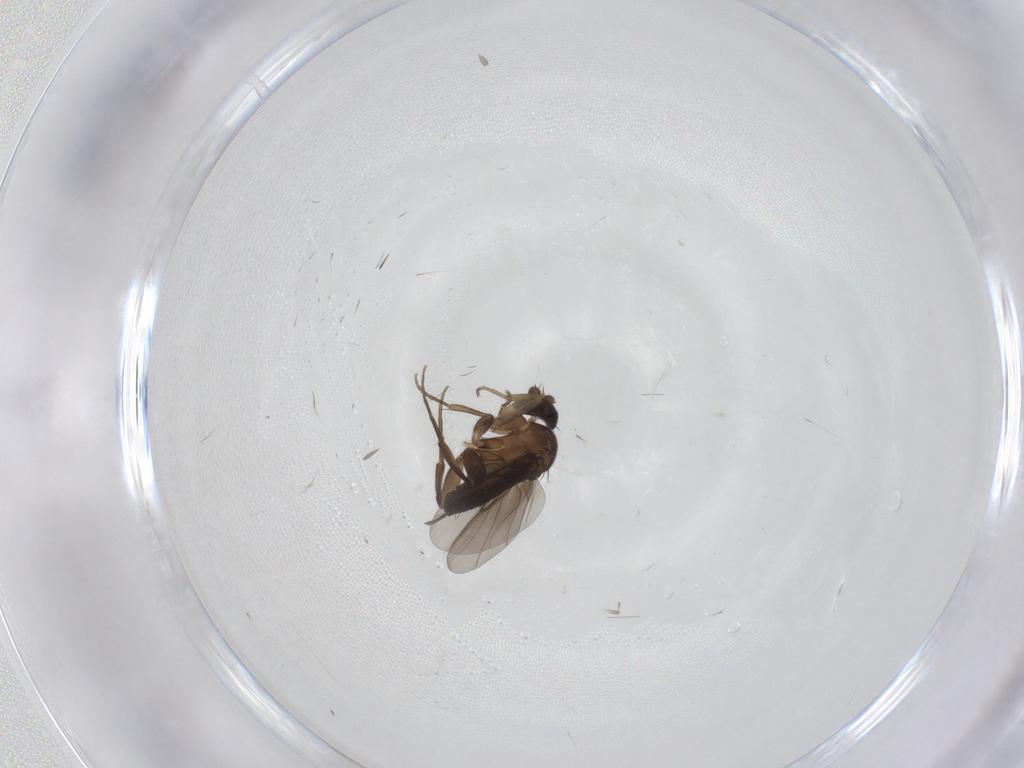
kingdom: Animalia
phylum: Arthropoda
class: Insecta
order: Diptera
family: Phoridae
